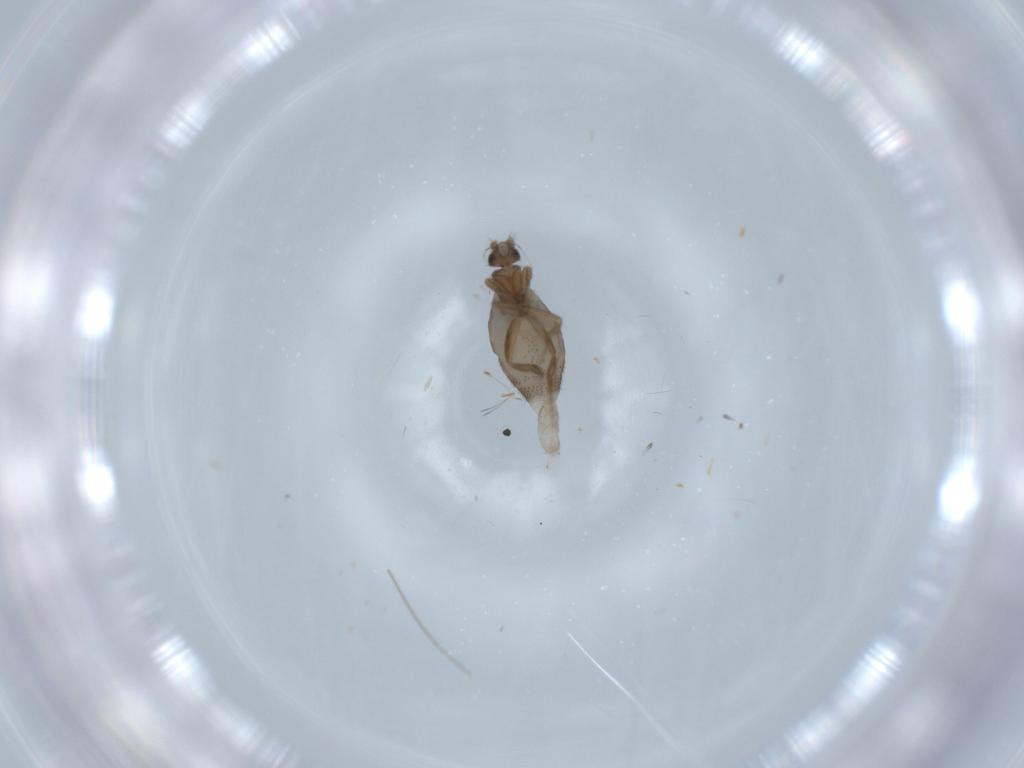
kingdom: Animalia
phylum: Arthropoda
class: Insecta
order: Diptera
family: Phoridae
